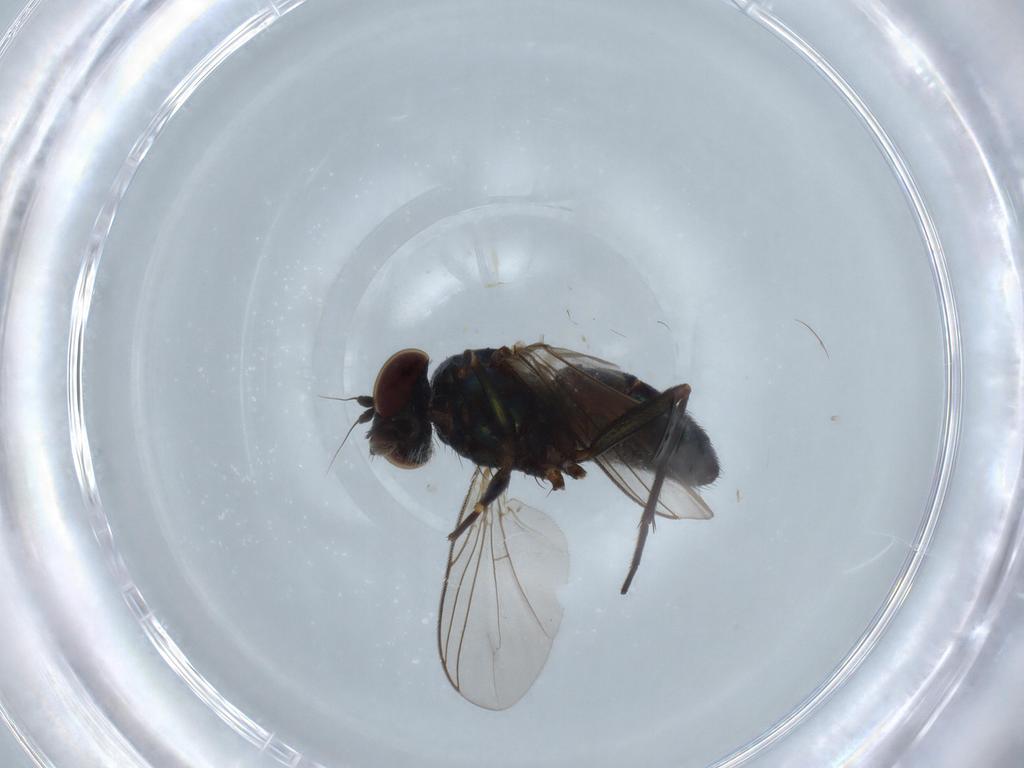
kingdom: Animalia
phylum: Arthropoda
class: Insecta
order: Diptera
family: Dolichopodidae
